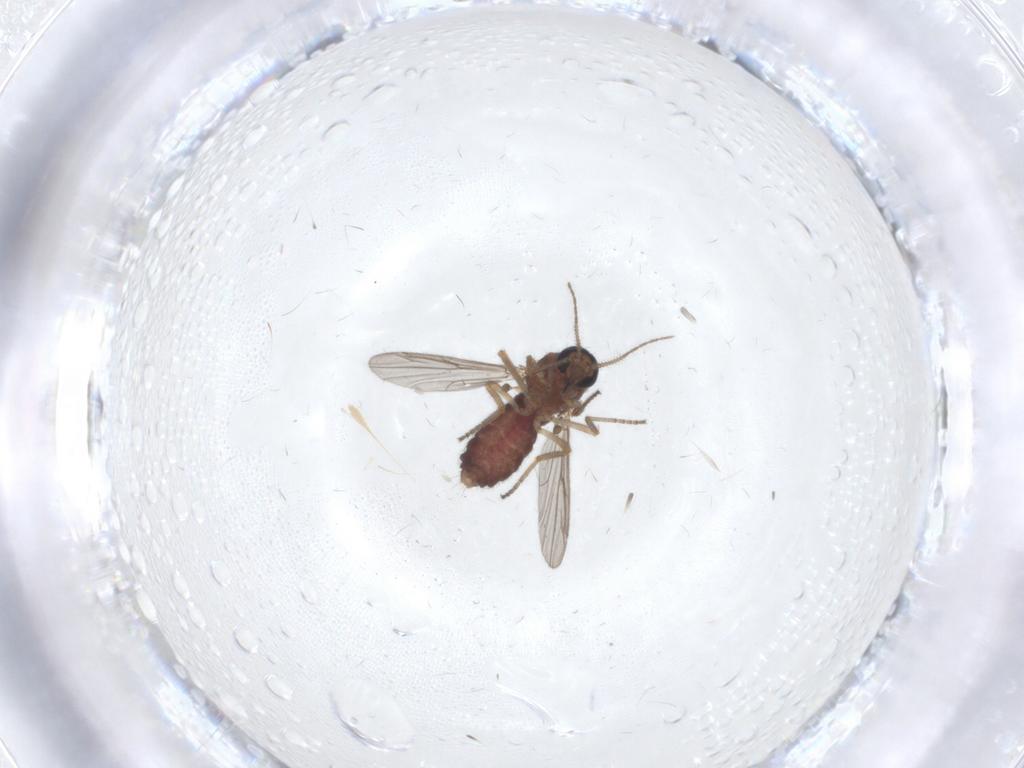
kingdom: Animalia
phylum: Arthropoda
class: Insecta
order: Diptera
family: Ceratopogonidae
